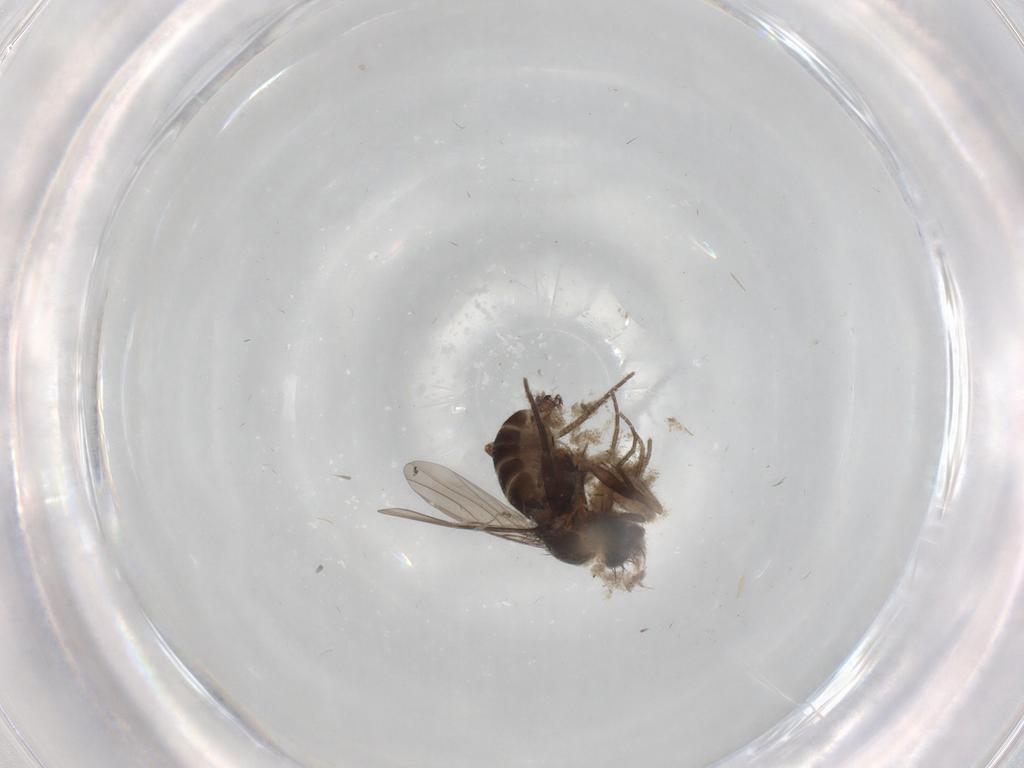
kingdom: Animalia
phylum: Arthropoda
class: Insecta
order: Diptera
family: Phoridae
